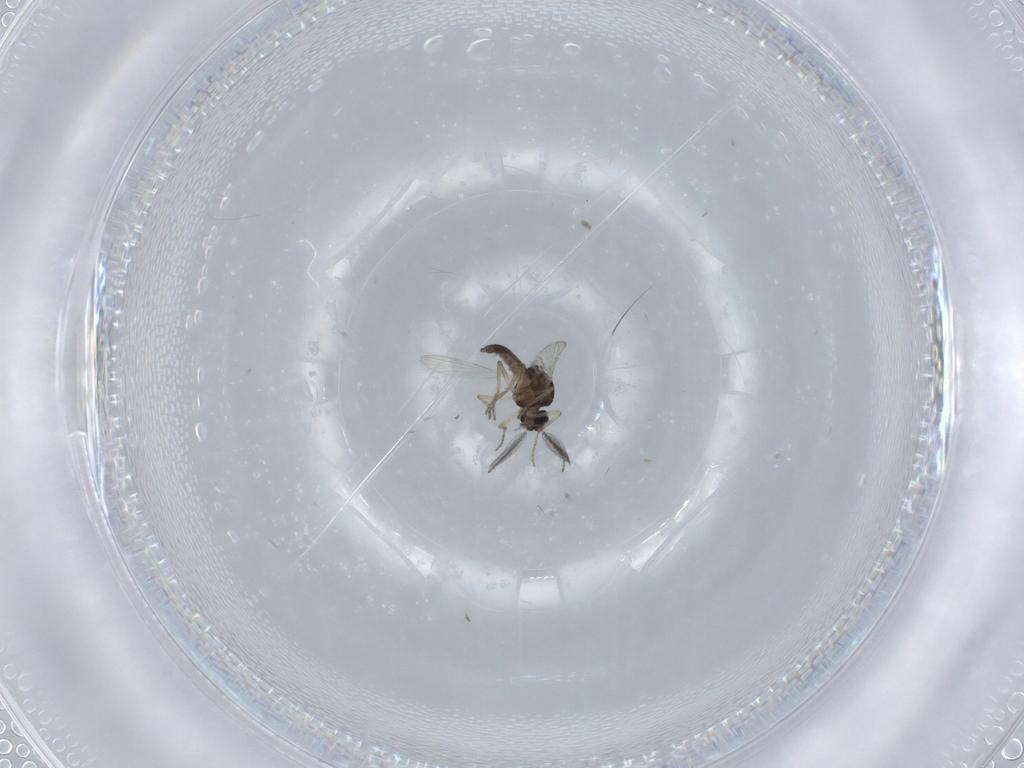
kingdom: Animalia
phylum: Arthropoda
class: Insecta
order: Diptera
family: Ceratopogonidae
